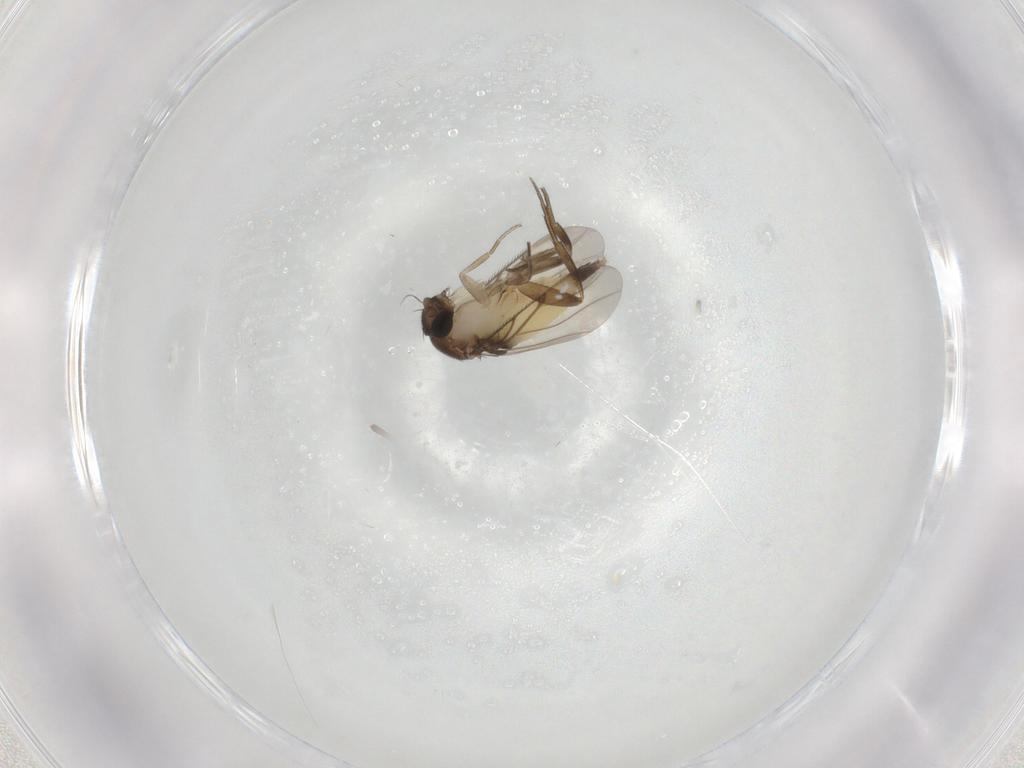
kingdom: Animalia
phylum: Arthropoda
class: Insecta
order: Diptera
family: Phoridae
